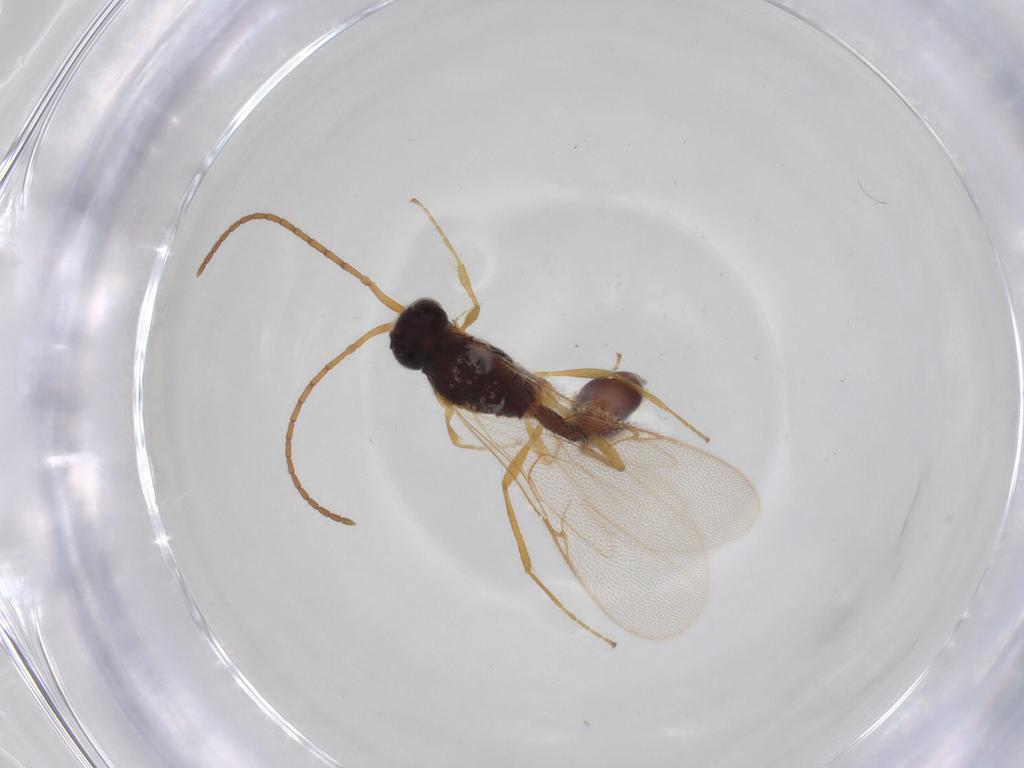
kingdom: Animalia
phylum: Arthropoda
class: Insecta
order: Hymenoptera
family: Diapriidae
